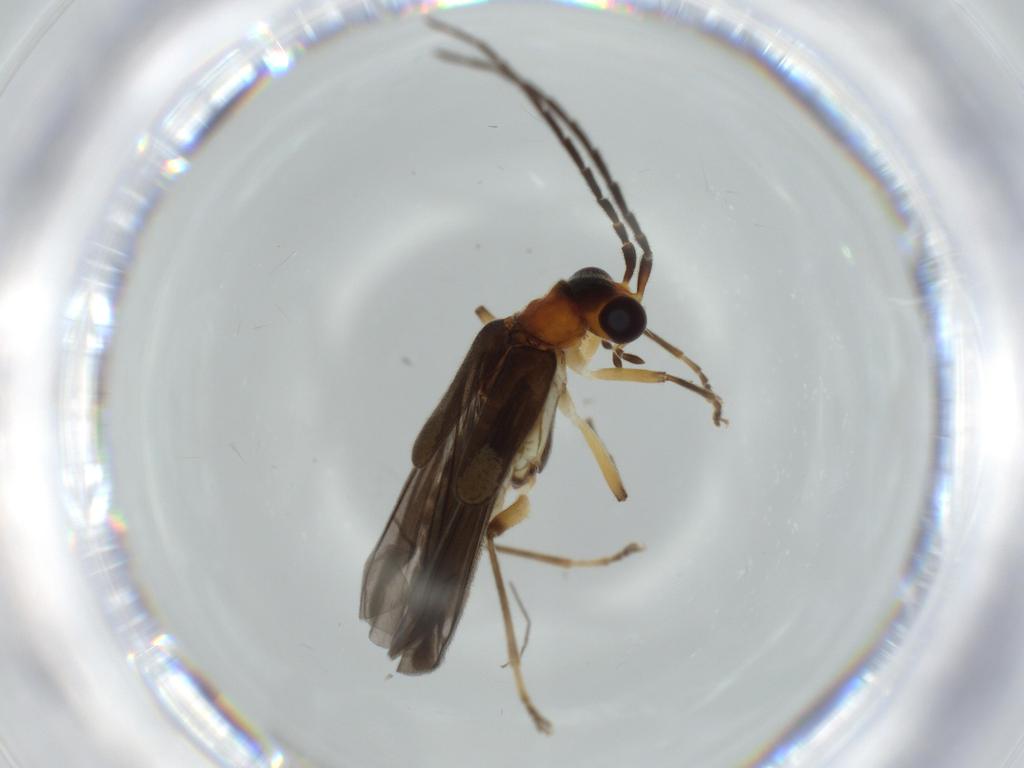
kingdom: Animalia
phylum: Arthropoda
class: Insecta
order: Coleoptera
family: Cantharidae
